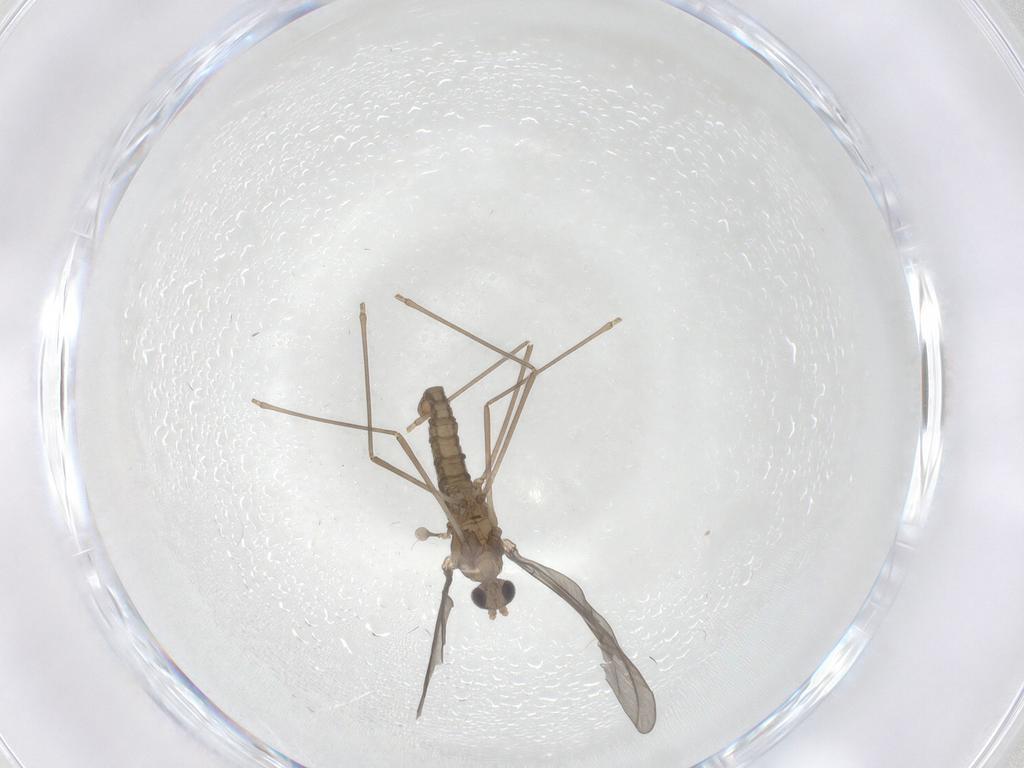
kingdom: Animalia
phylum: Arthropoda
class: Insecta
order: Diptera
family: Cecidomyiidae
